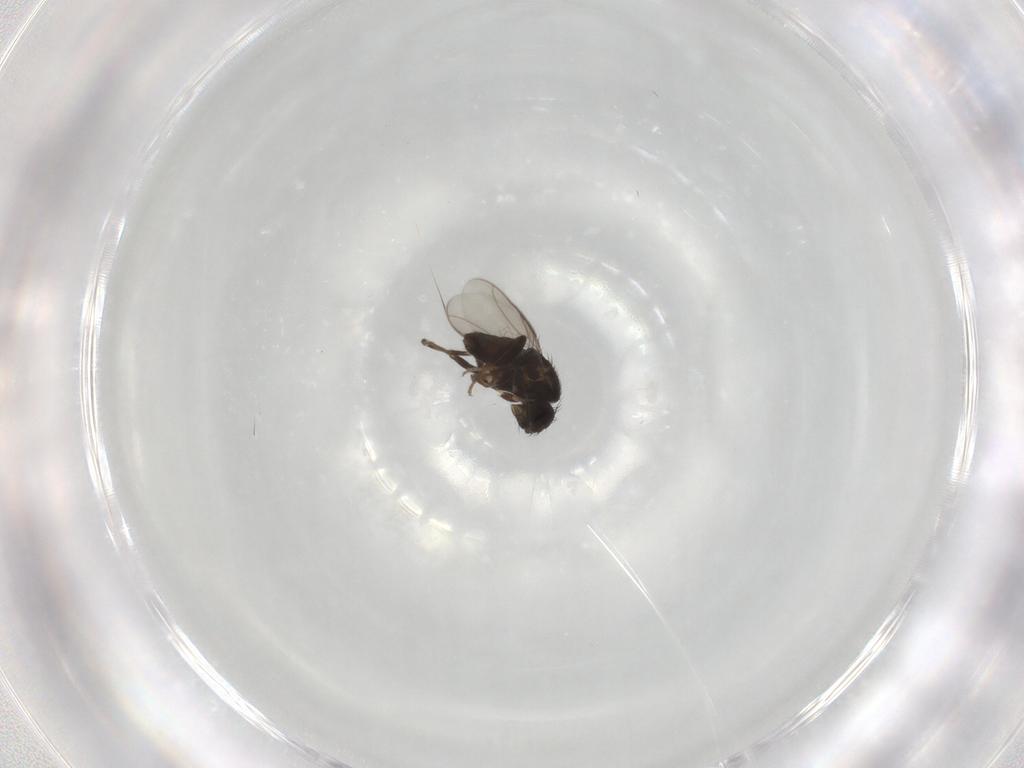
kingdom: Animalia
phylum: Arthropoda
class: Insecta
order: Diptera
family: Sphaeroceridae
